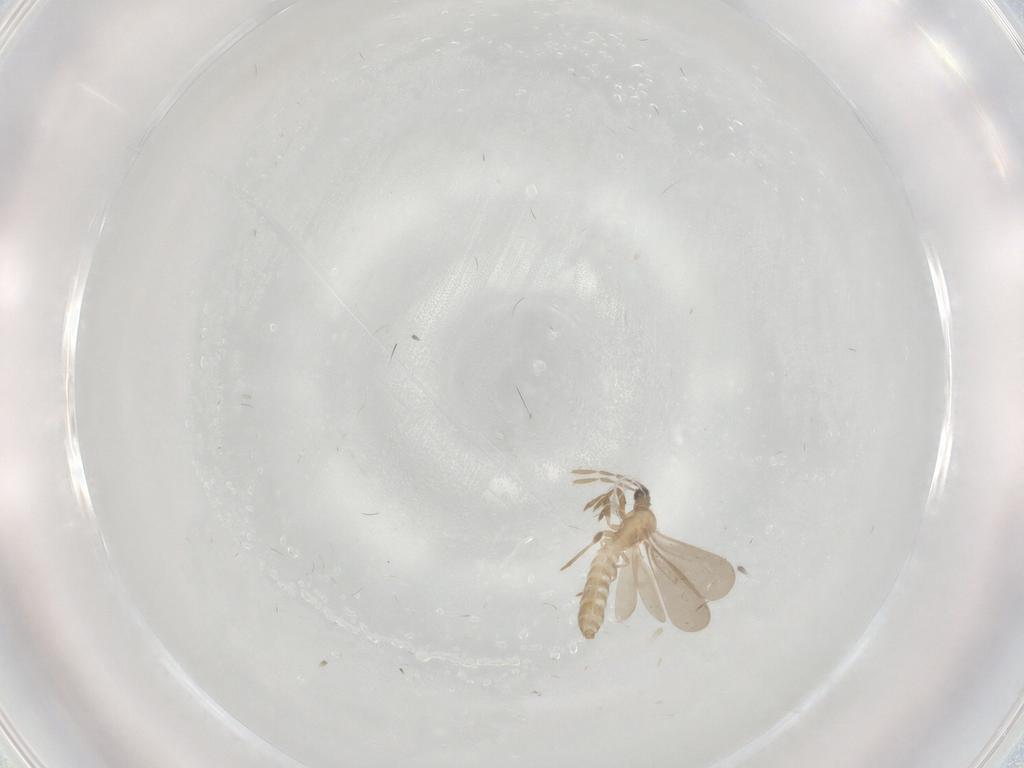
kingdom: Animalia
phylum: Arthropoda
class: Insecta
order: Hemiptera
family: Enicocephalidae
